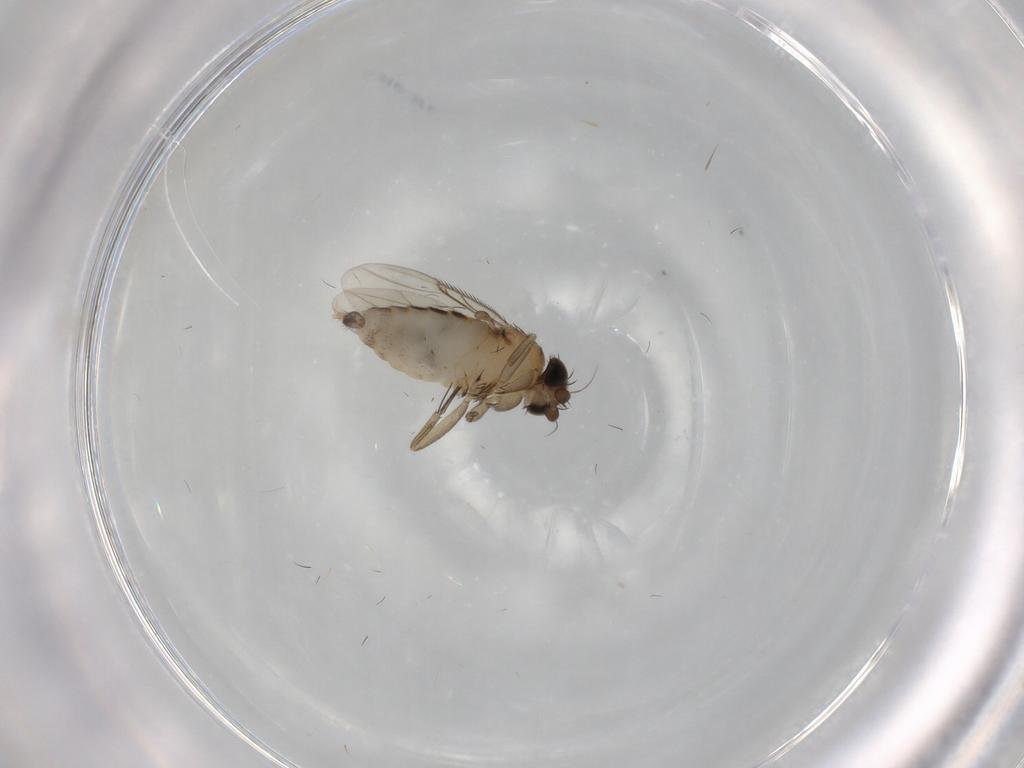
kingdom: Animalia
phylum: Arthropoda
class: Insecta
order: Diptera
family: Phoridae
